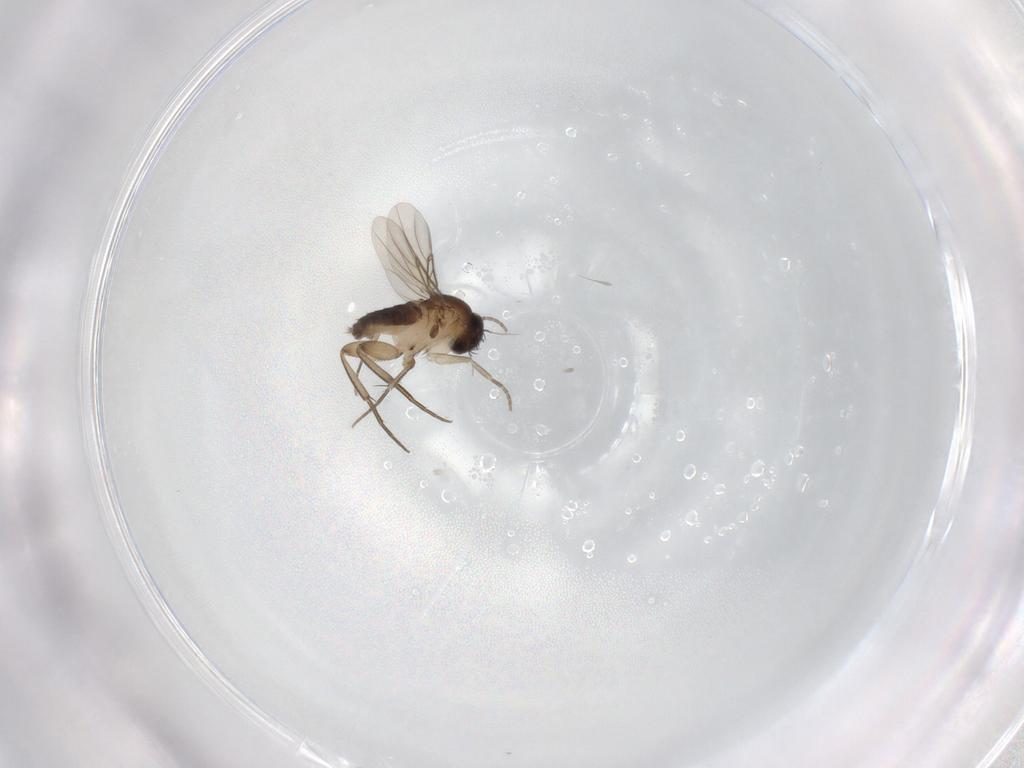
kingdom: Animalia
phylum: Arthropoda
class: Insecta
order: Diptera
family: Phoridae
